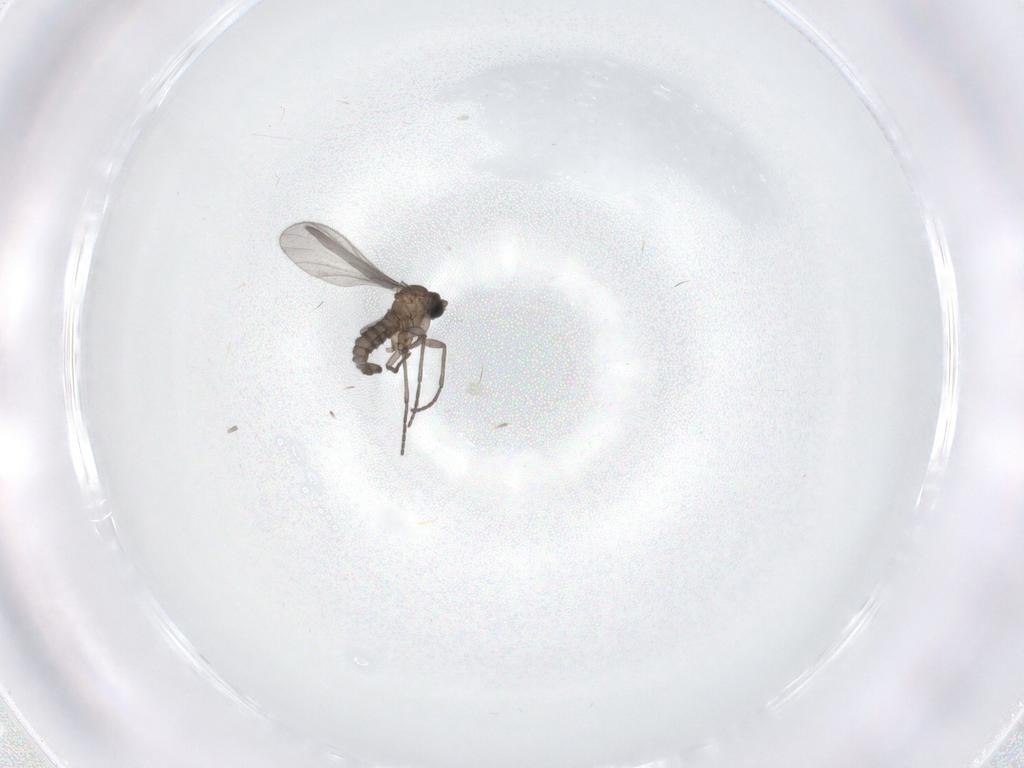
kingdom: Animalia
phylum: Arthropoda
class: Insecta
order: Diptera
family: Sciaridae
